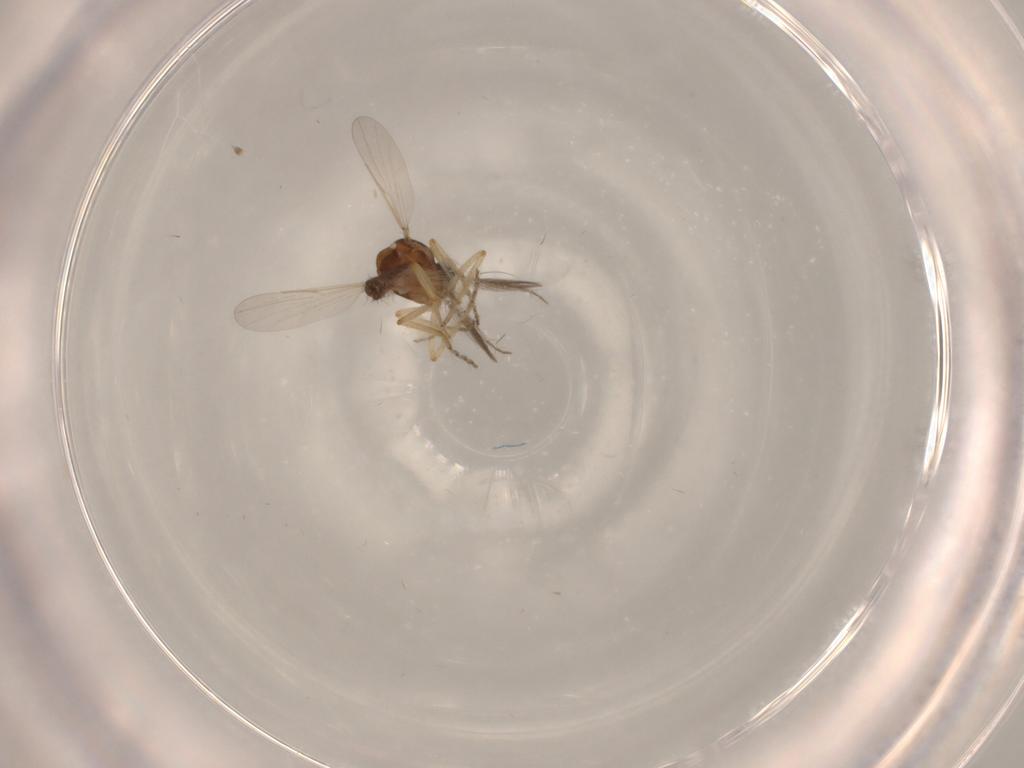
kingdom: Animalia
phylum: Arthropoda
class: Insecta
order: Diptera
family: Ceratopogonidae
